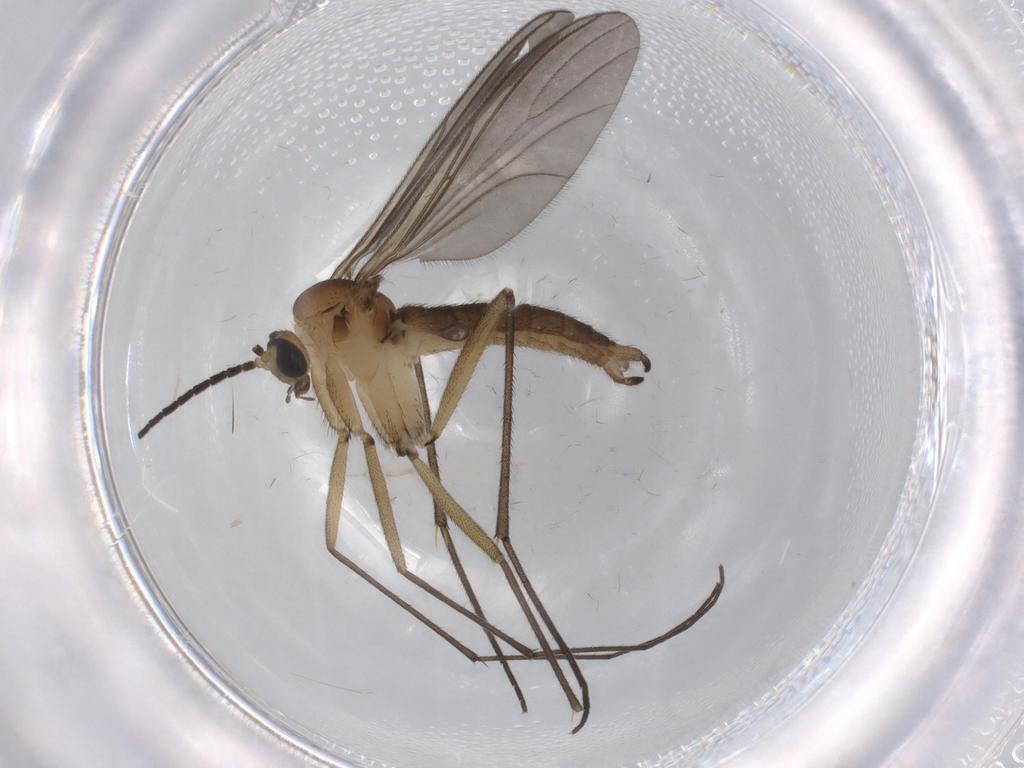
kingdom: Animalia
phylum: Arthropoda
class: Insecta
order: Diptera
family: Sciaridae
